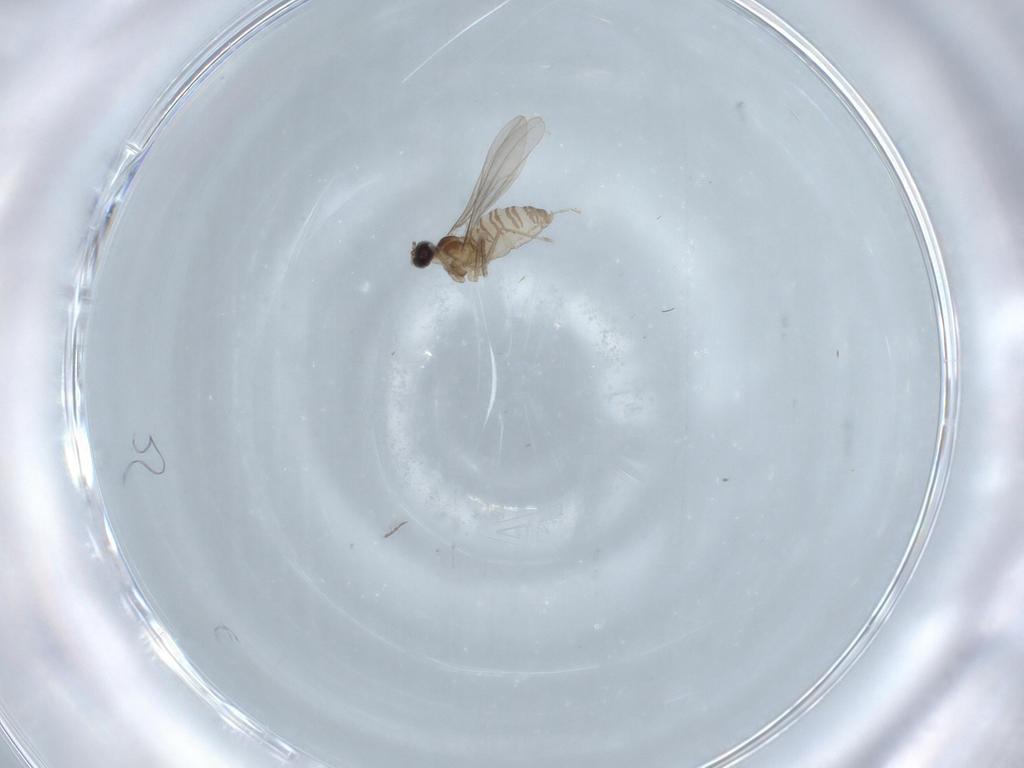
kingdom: Animalia
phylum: Arthropoda
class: Insecta
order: Diptera
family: Cecidomyiidae
